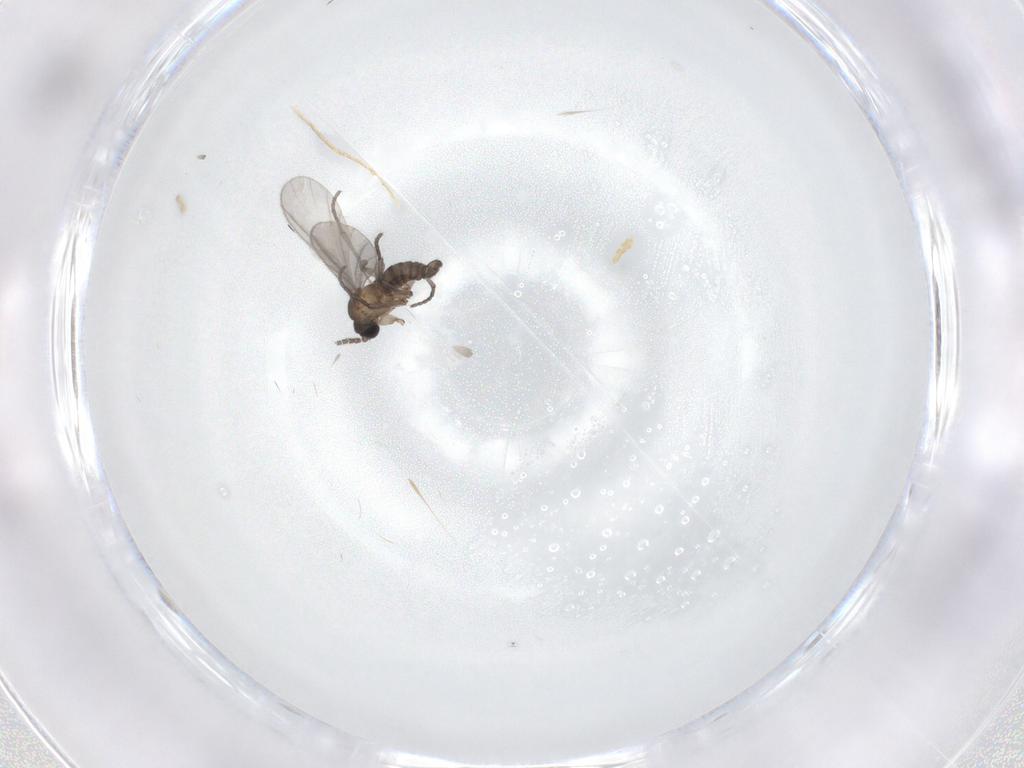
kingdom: Animalia
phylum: Arthropoda
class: Insecta
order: Diptera
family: Sciaridae
